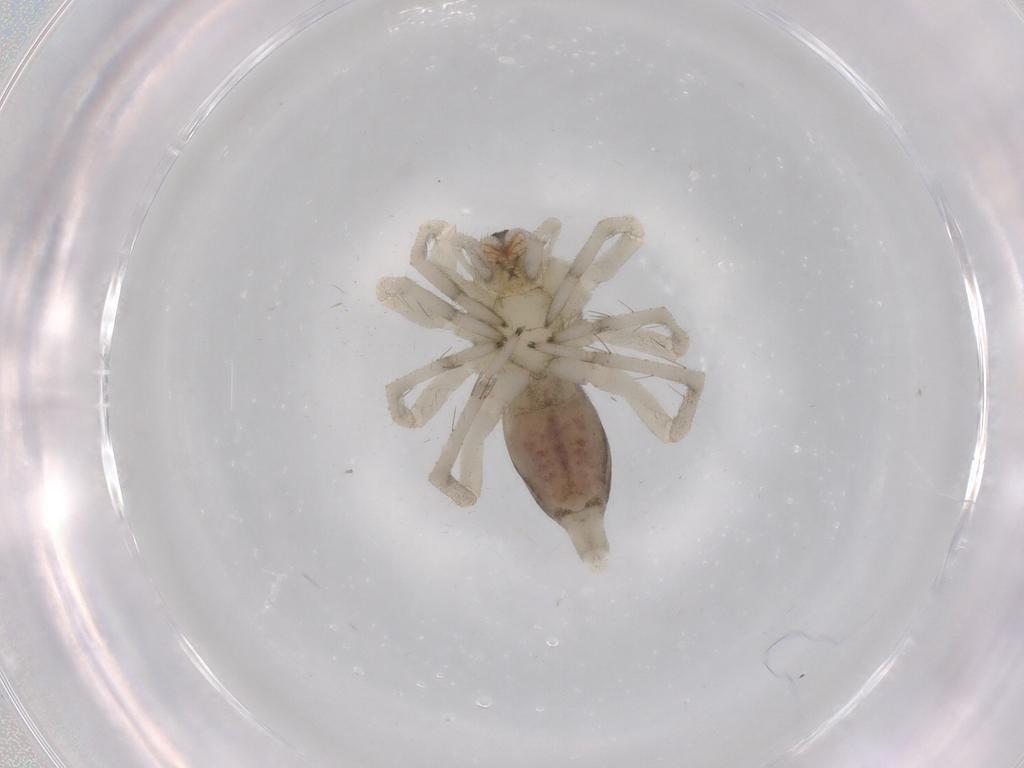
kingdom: Animalia
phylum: Arthropoda
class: Arachnida
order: Araneae
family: Anyphaenidae
